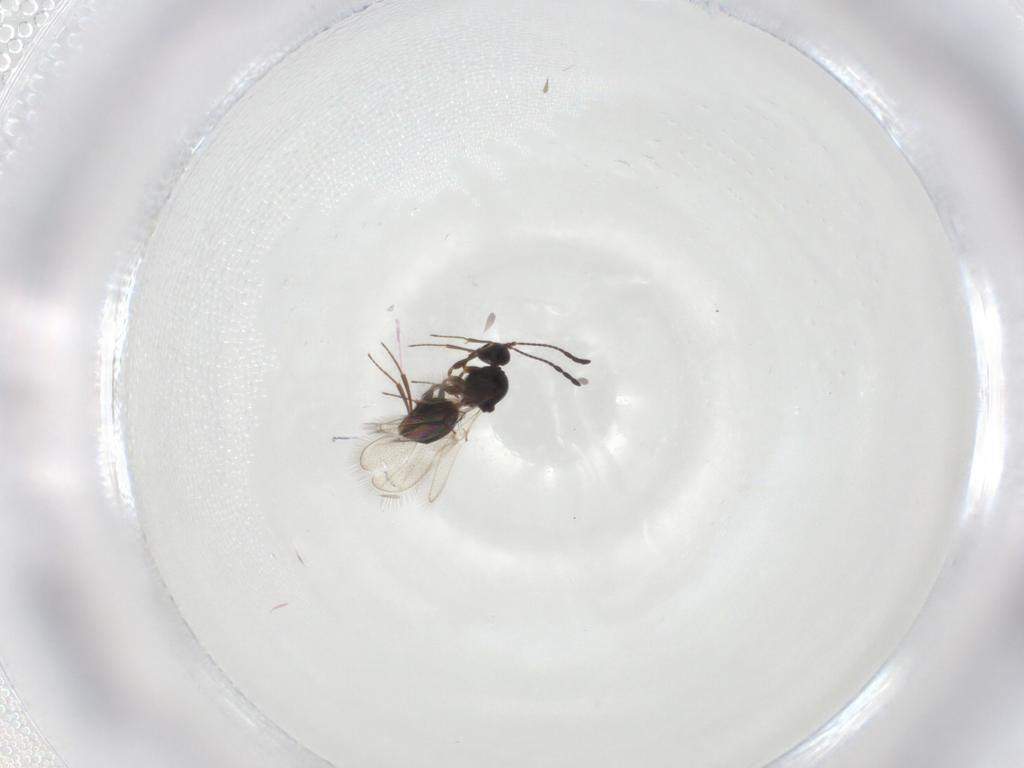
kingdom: Animalia
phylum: Arthropoda
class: Insecta
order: Hymenoptera
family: Figitidae
